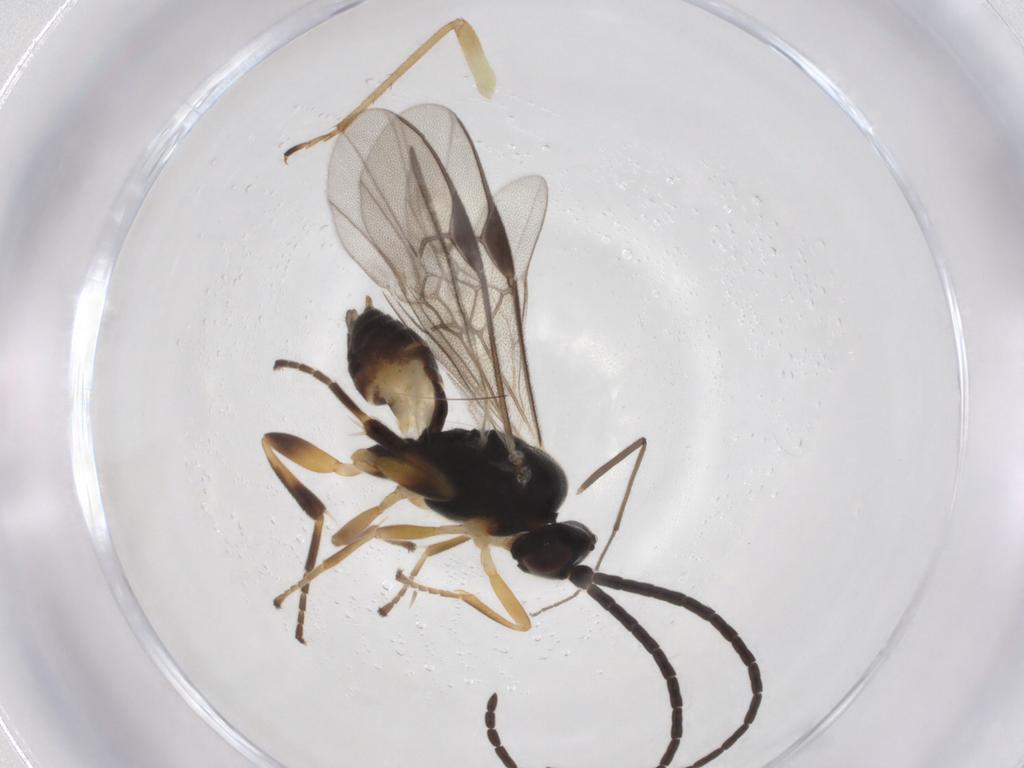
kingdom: Animalia
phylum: Arthropoda
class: Insecta
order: Hymenoptera
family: Braconidae
